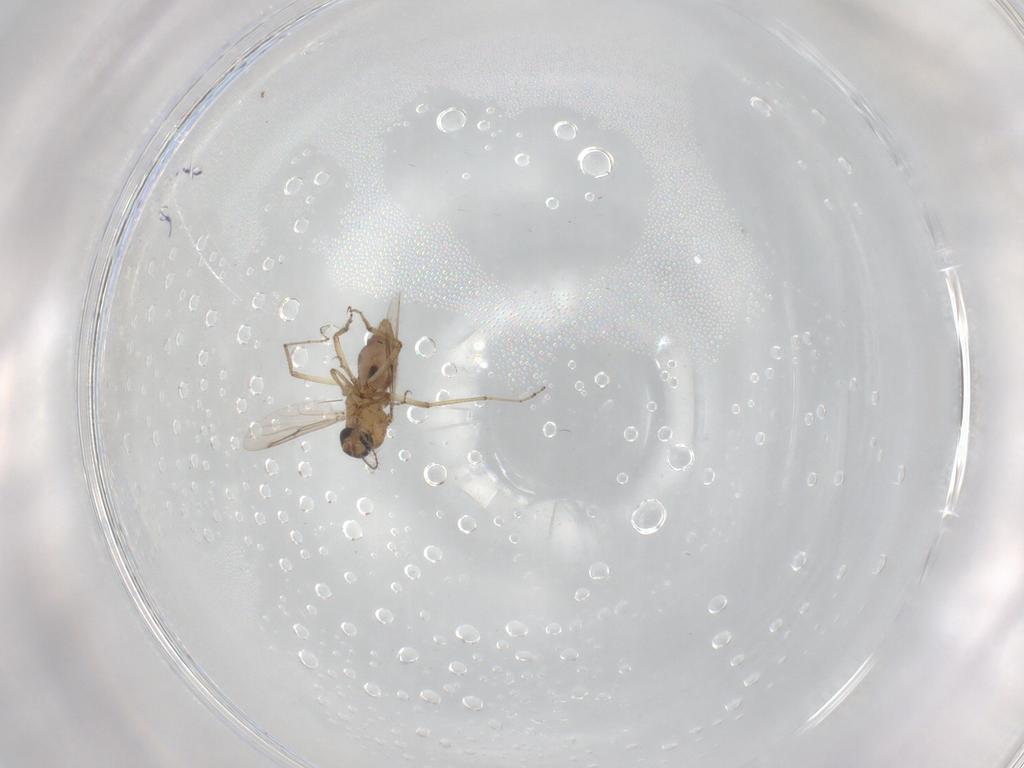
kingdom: Animalia
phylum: Arthropoda
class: Insecta
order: Diptera
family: Ceratopogonidae
